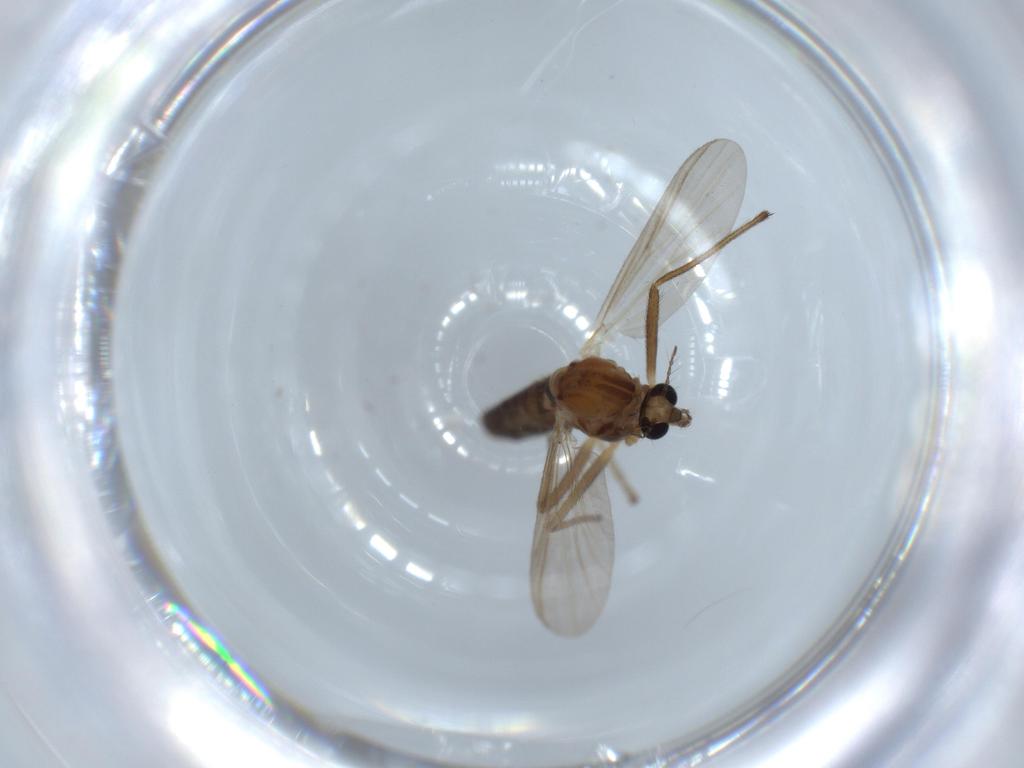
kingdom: Animalia
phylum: Arthropoda
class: Insecta
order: Diptera
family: Chironomidae
